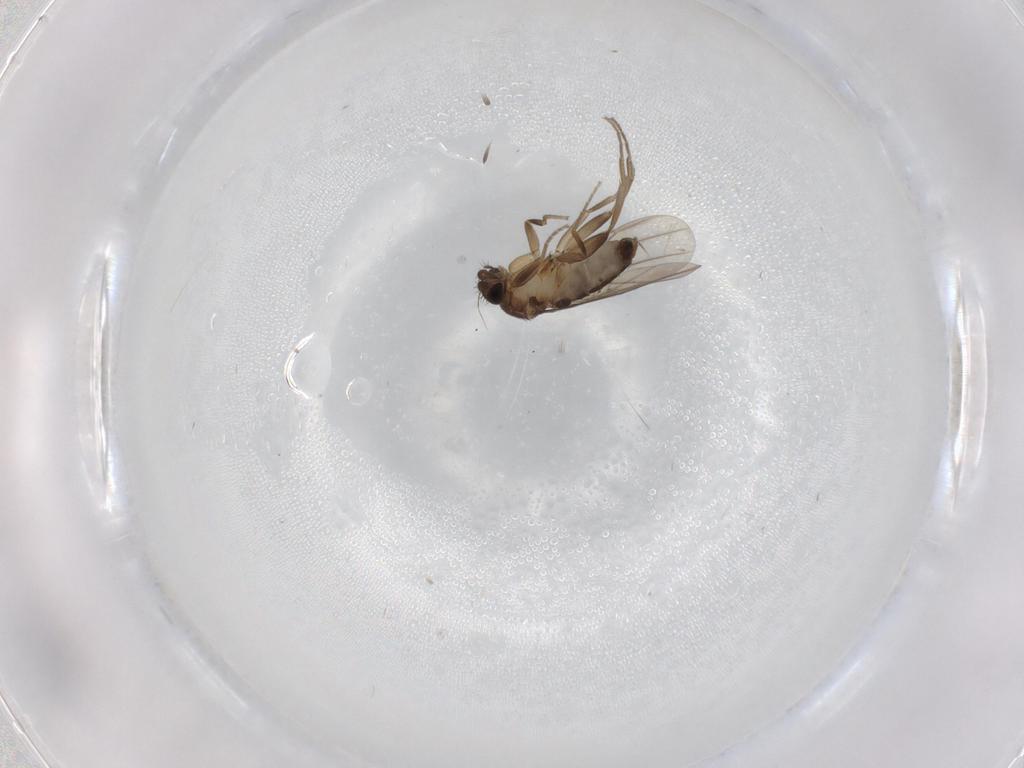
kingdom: Animalia
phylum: Arthropoda
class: Insecta
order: Diptera
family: Phoridae
